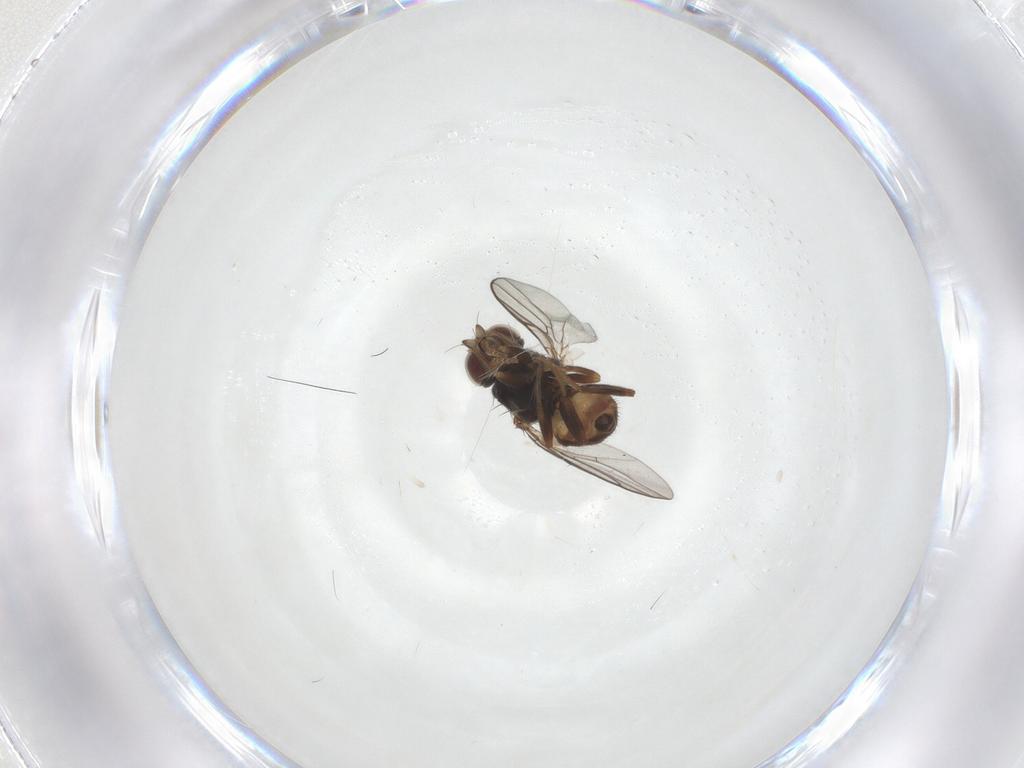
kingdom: Animalia
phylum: Arthropoda
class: Insecta
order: Diptera
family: Chloropidae
